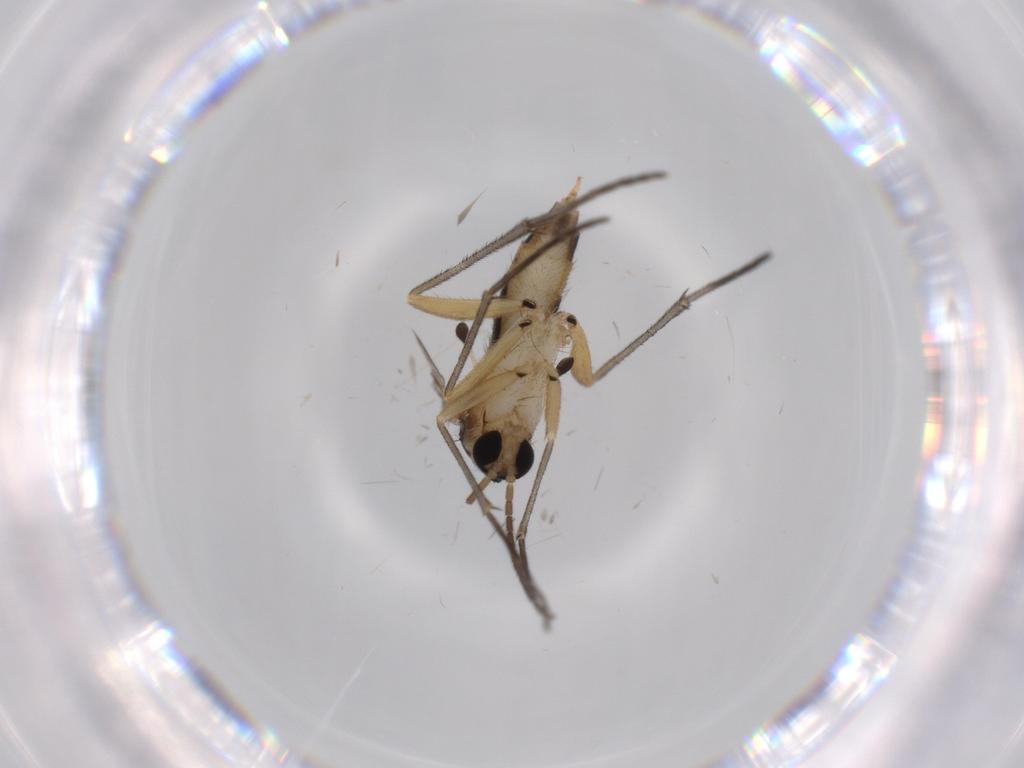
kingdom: Animalia
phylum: Arthropoda
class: Insecta
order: Diptera
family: Sciaridae
